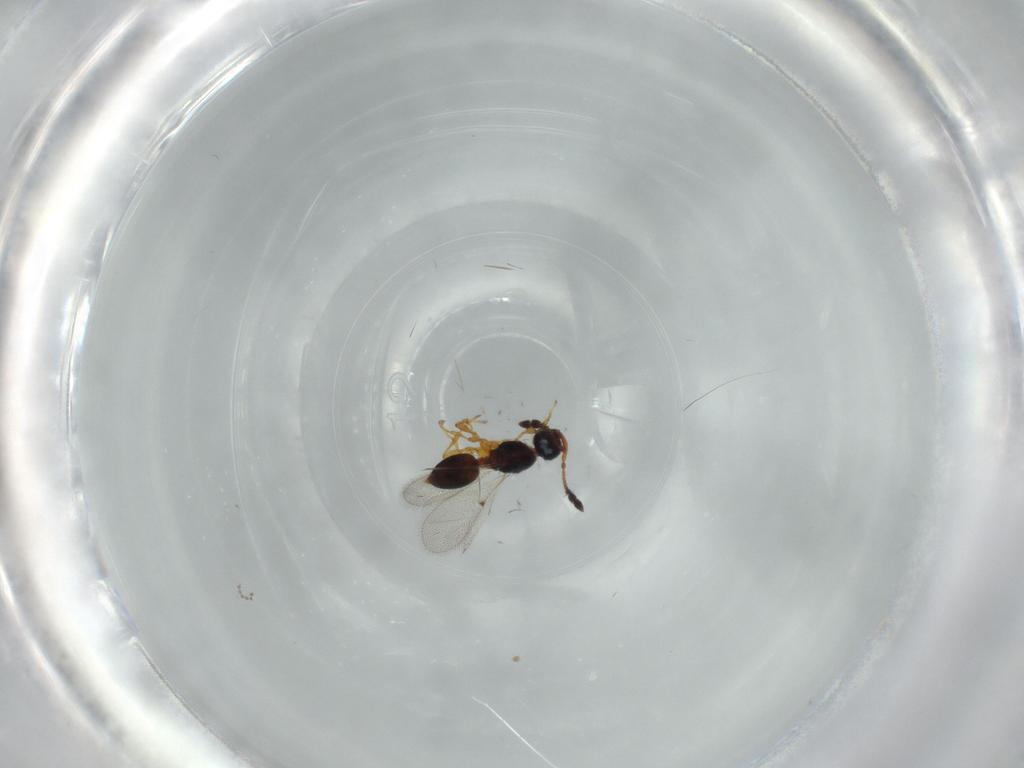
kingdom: Animalia
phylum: Arthropoda
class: Insecta
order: Hymenoptera
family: Diapriidae
